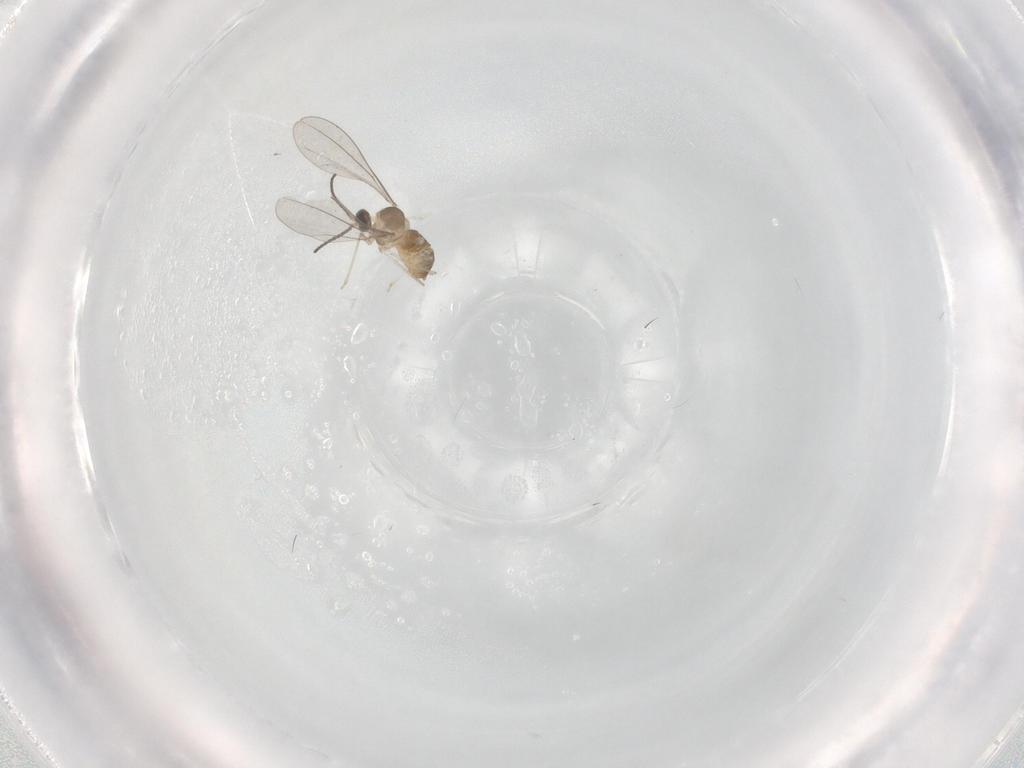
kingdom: Animalia
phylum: Arthropoda
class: Insecta
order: Diptera
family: Cecidomyiidae
